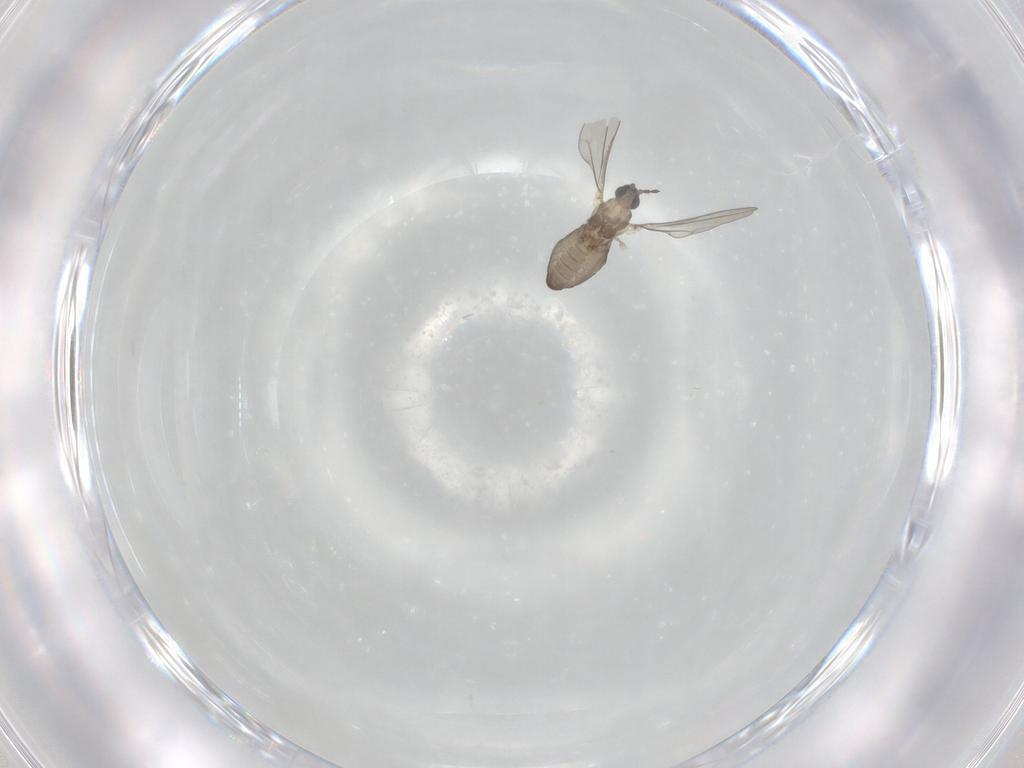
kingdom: Animalia
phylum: Arthropoda
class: Insecta
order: Diptera
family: Cecidomyiidae
